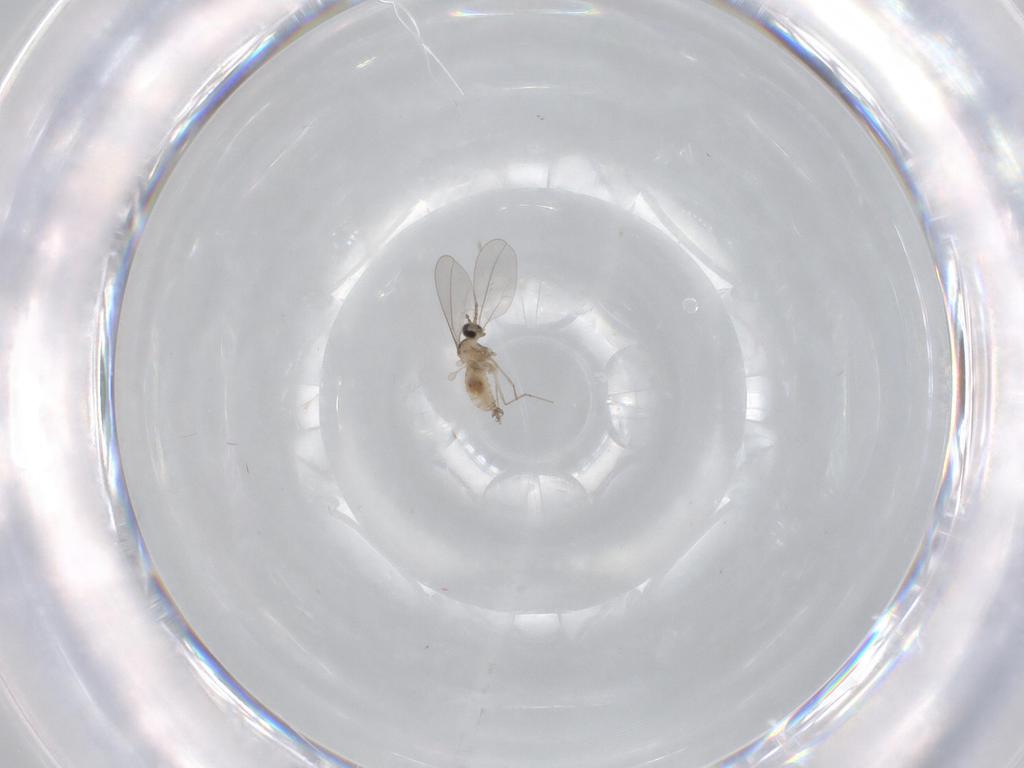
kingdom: Animalia
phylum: Arthropoda
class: Insecta
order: Diptera
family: Cecidomyiidae
